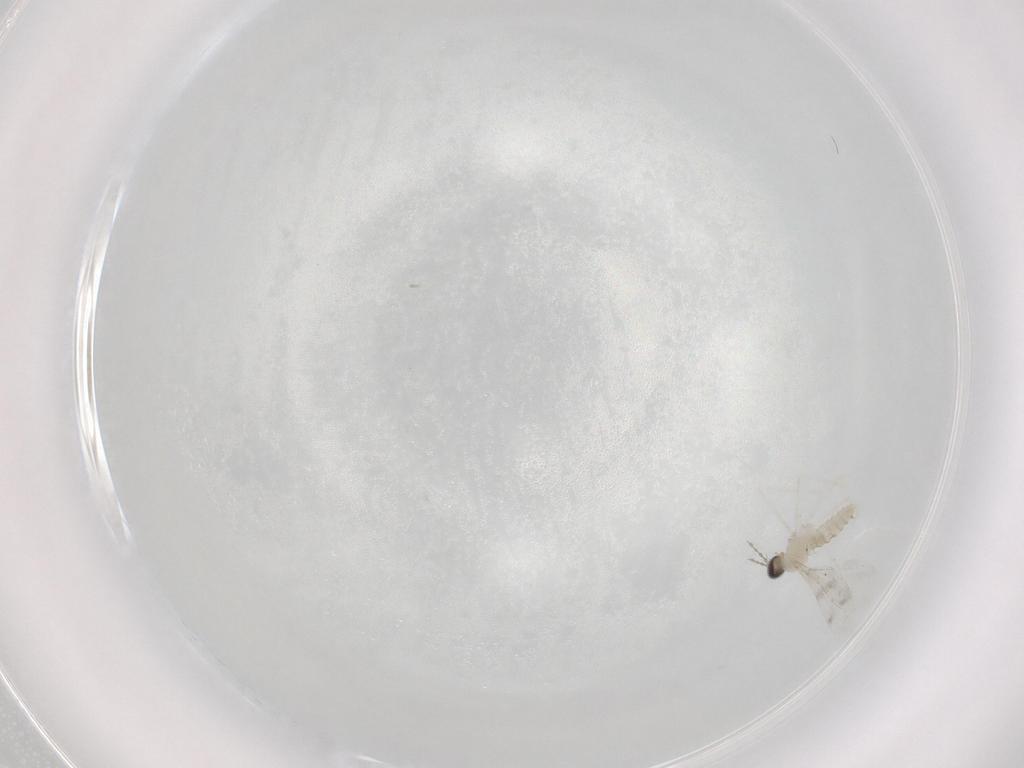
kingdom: Animalia
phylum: Arthropoda
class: Insecta
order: Diptera
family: Cecidomyiidae
